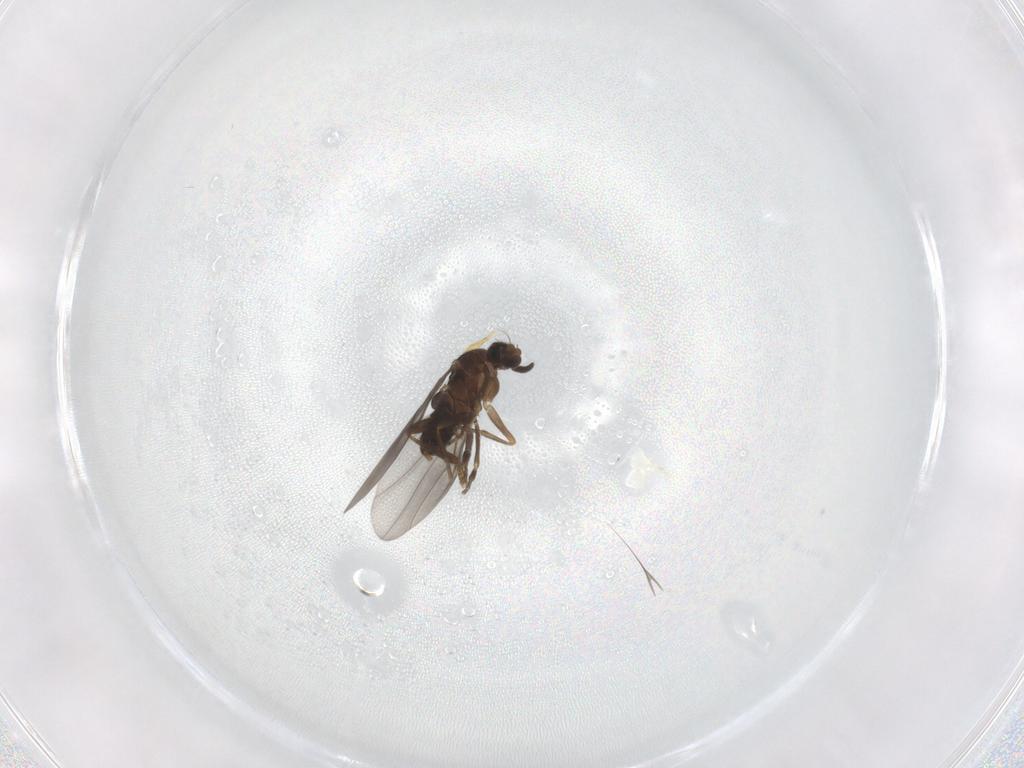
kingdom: Animalia
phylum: Arthropoda
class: Insecta
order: Diptera
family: Mycetophilidae
